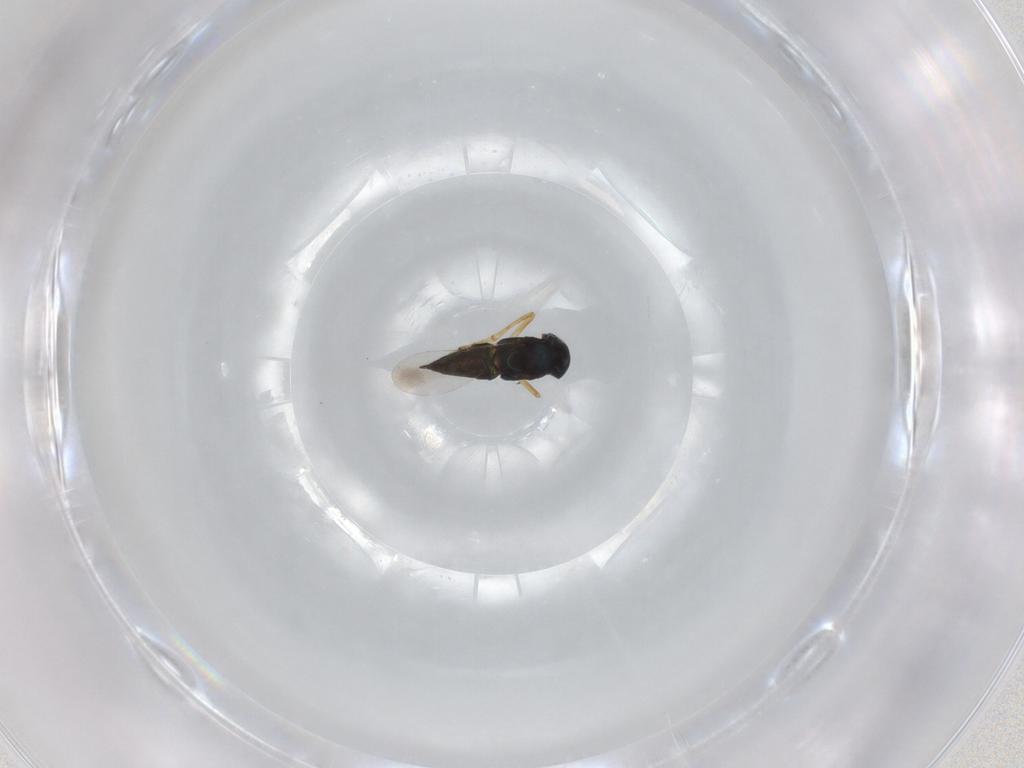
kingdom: Animalia
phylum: Arthropoda
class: Insecta
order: Hymenoptera
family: Encyrtidae
